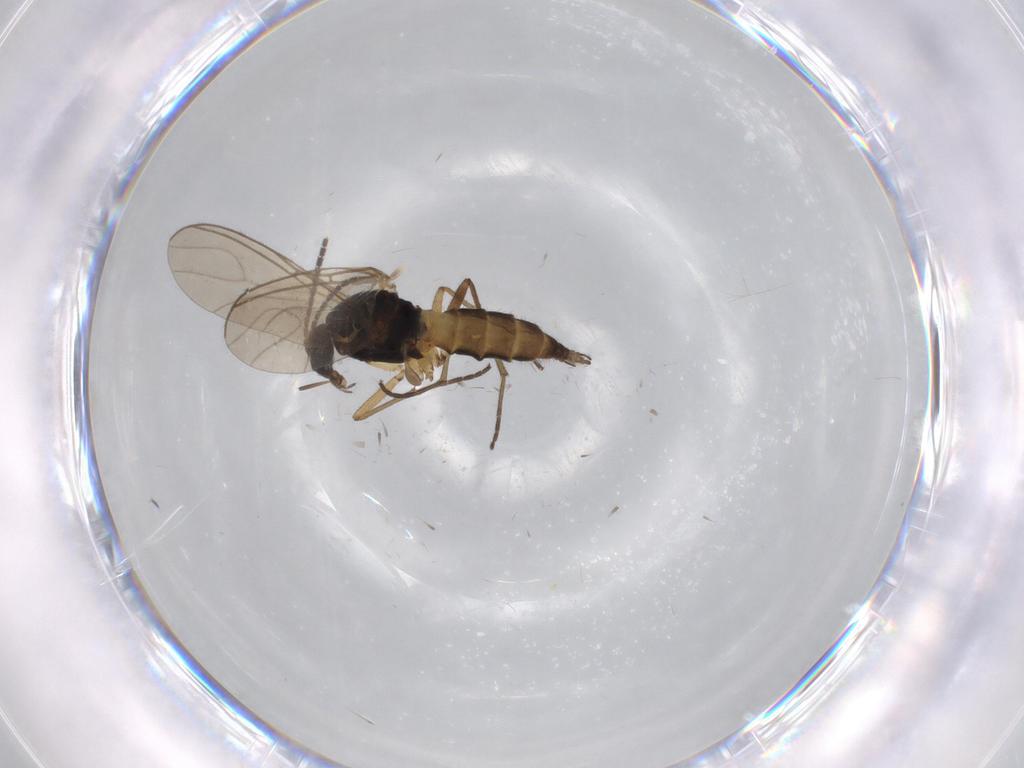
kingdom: Animalia
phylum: Arthropoda
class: Insecta
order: Diptera
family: Sciaridae
